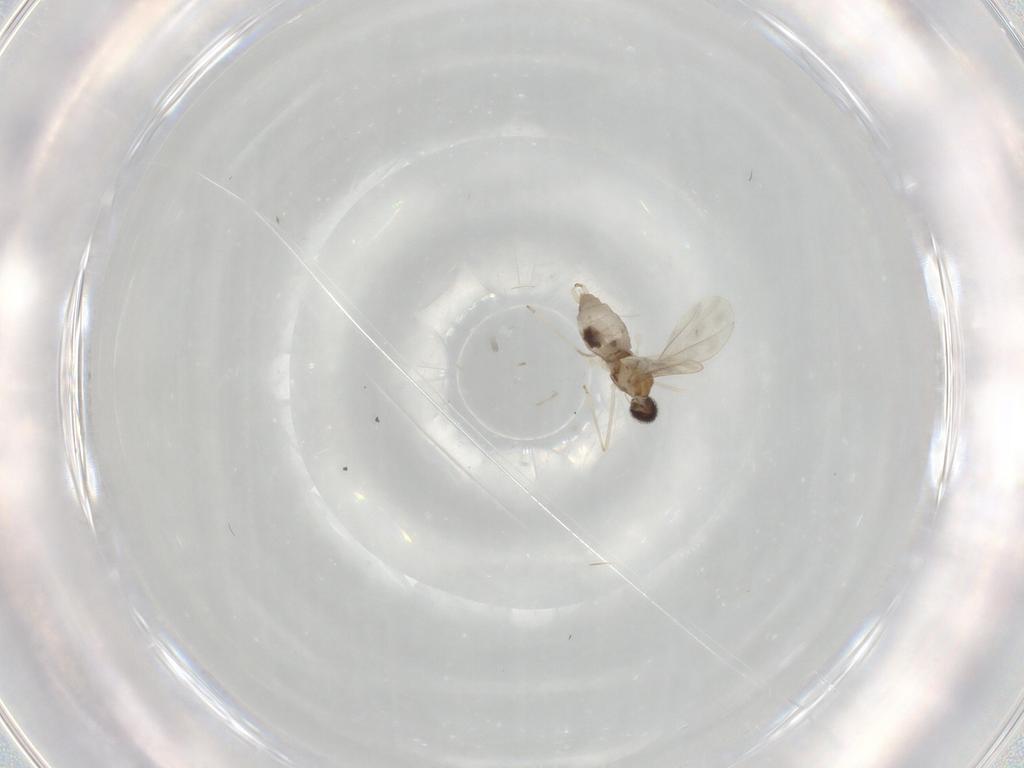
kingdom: Animalia
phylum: Arthropoda
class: Insecta
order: Diptera
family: Cecidomyiidae
